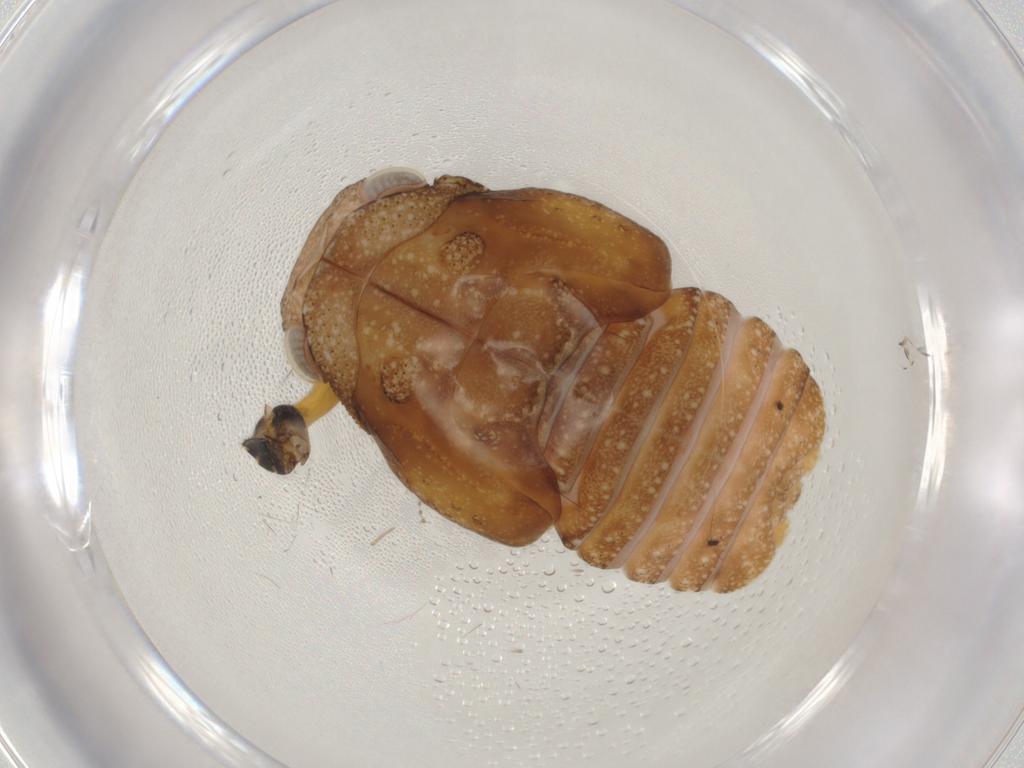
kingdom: Animalia
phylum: Arthropoda
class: Insecta
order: Hemiptera
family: Fulgoroidea_incertae_sedis
